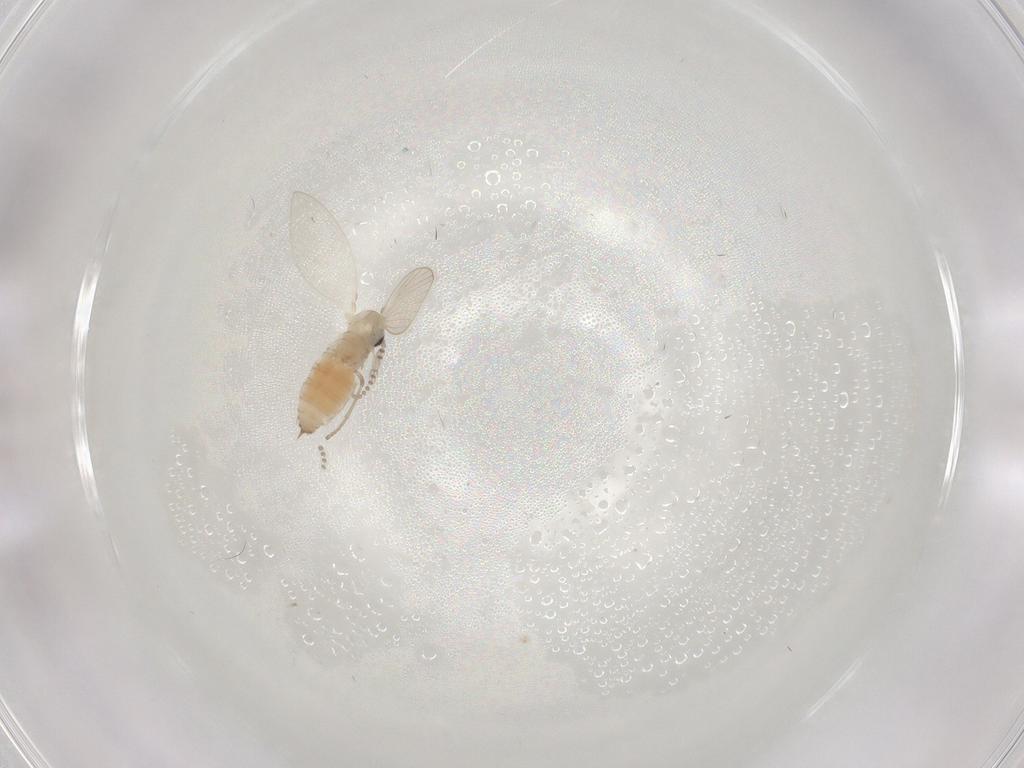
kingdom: Animalia
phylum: Arthropoda
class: Insecta
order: Diptera
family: Psychodidae
